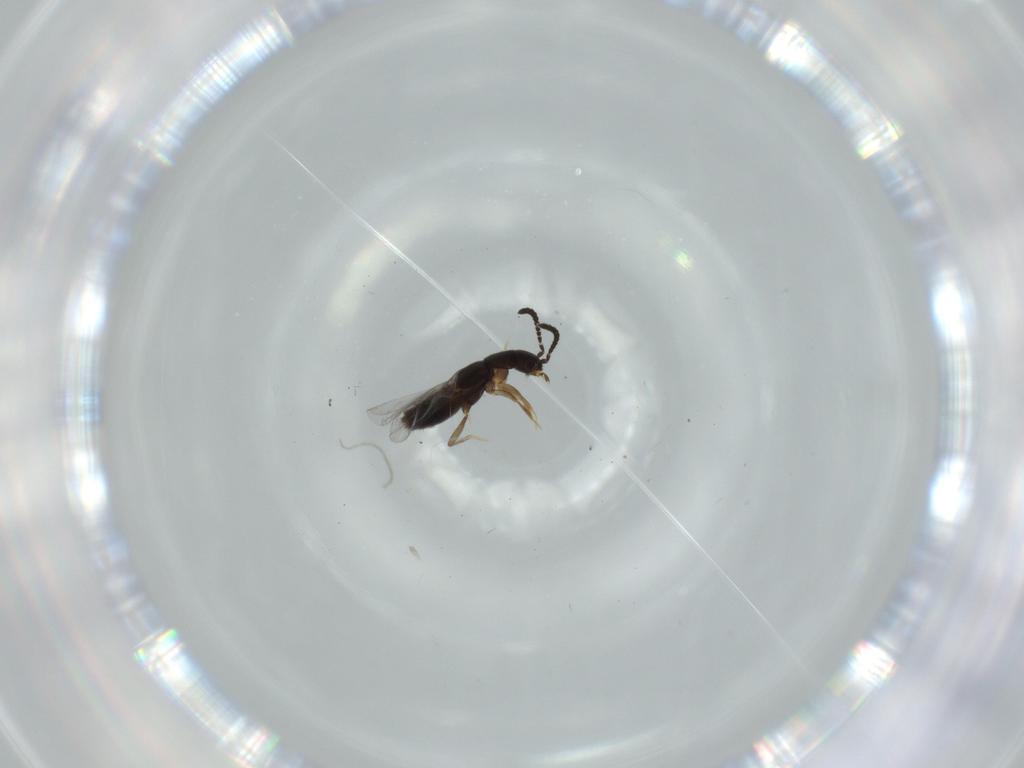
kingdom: Animalia
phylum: Arthropoda
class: Insecta
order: Coleoptera
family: Staphylinidae
